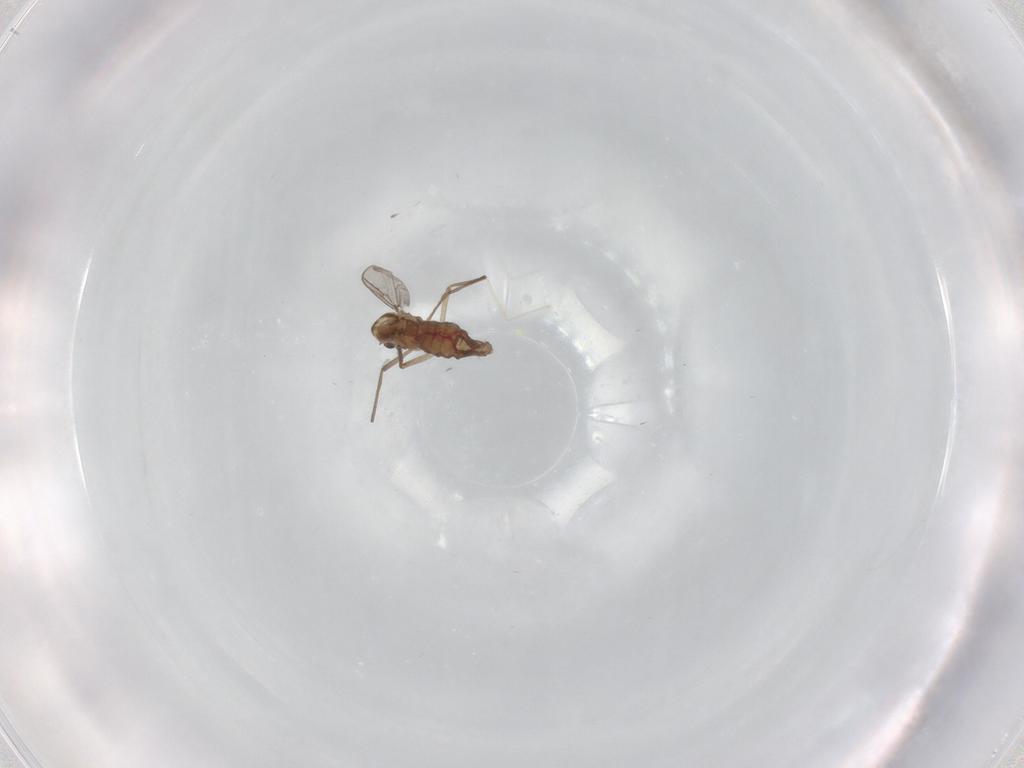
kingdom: Animalia
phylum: Arthropoda
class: Insecta
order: Diptera
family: Chironomidae
